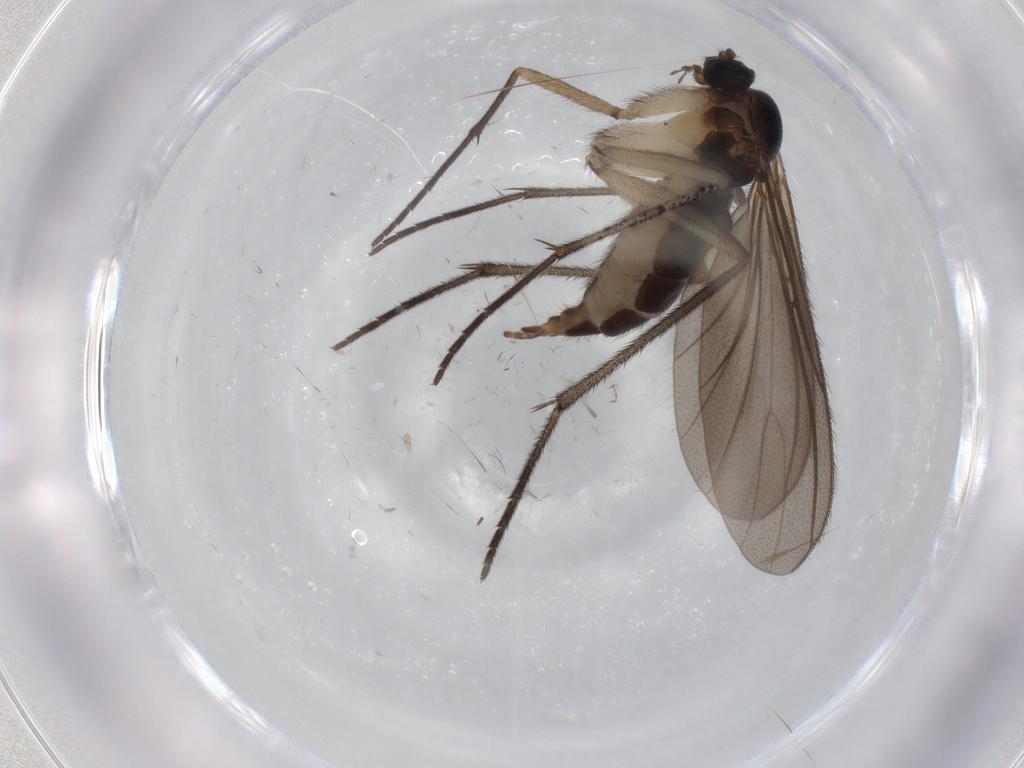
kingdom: Animalia
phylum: Arthropoda
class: Insecta
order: Diptera
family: Sciaridae
